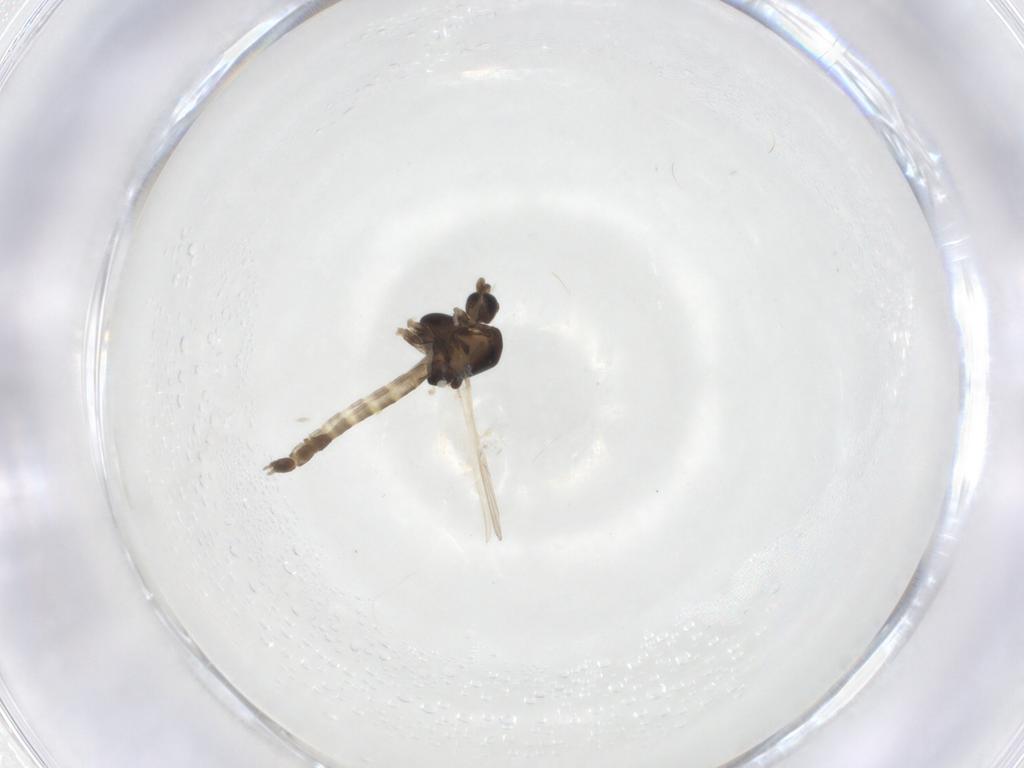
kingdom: Animalia
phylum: Arthropoda
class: Insecta
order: Diptera
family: Chironomidae
